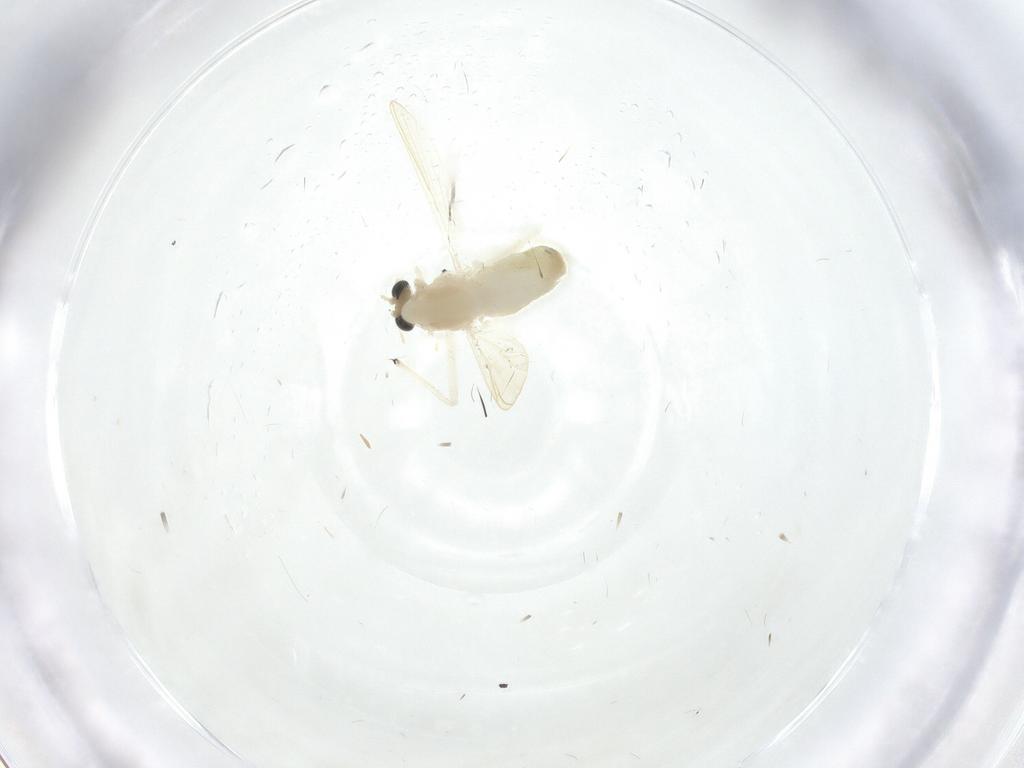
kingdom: Animalia
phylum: Arthropoda
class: Insecta
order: Diptera
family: Chironomidae
